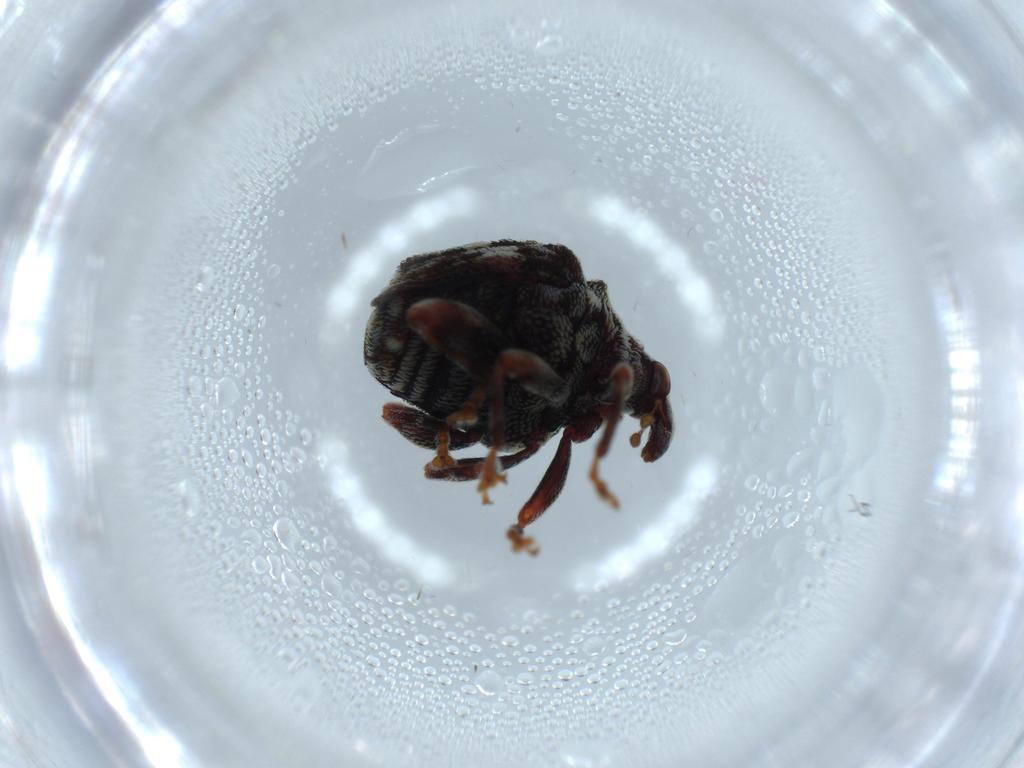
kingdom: Animalia
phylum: Arthropoda
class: Insecta
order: Coleoptera
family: Curculionidae
